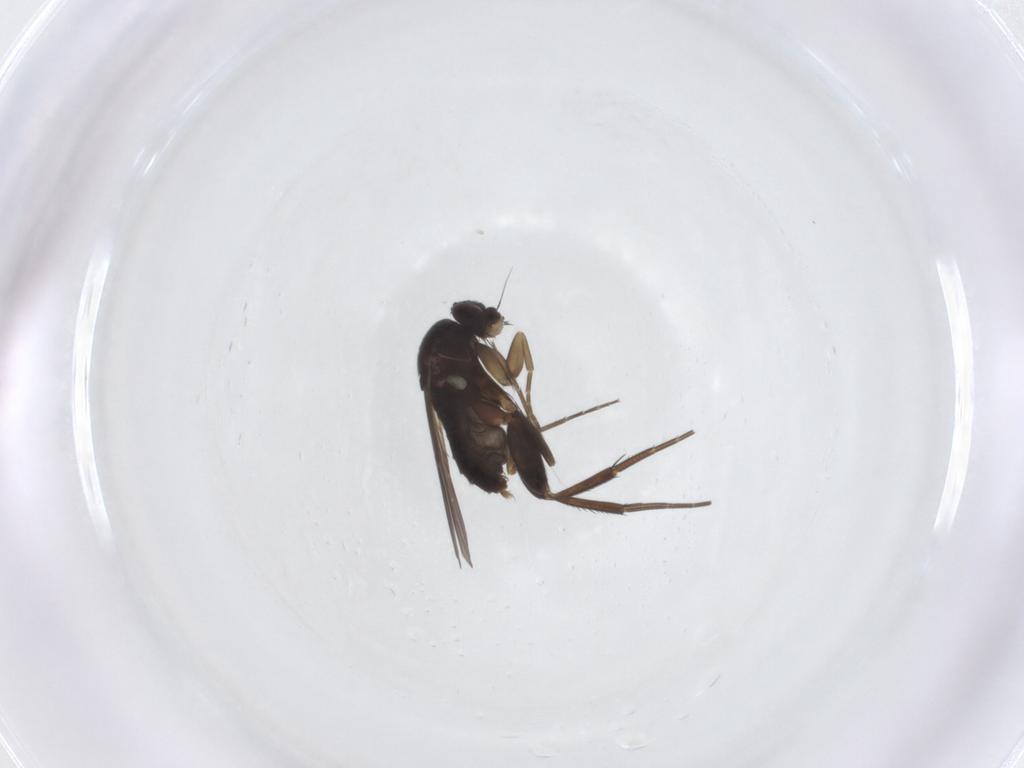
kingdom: Animalia
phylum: Arthropoda
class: Insecta
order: Diptera
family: Phoridae
